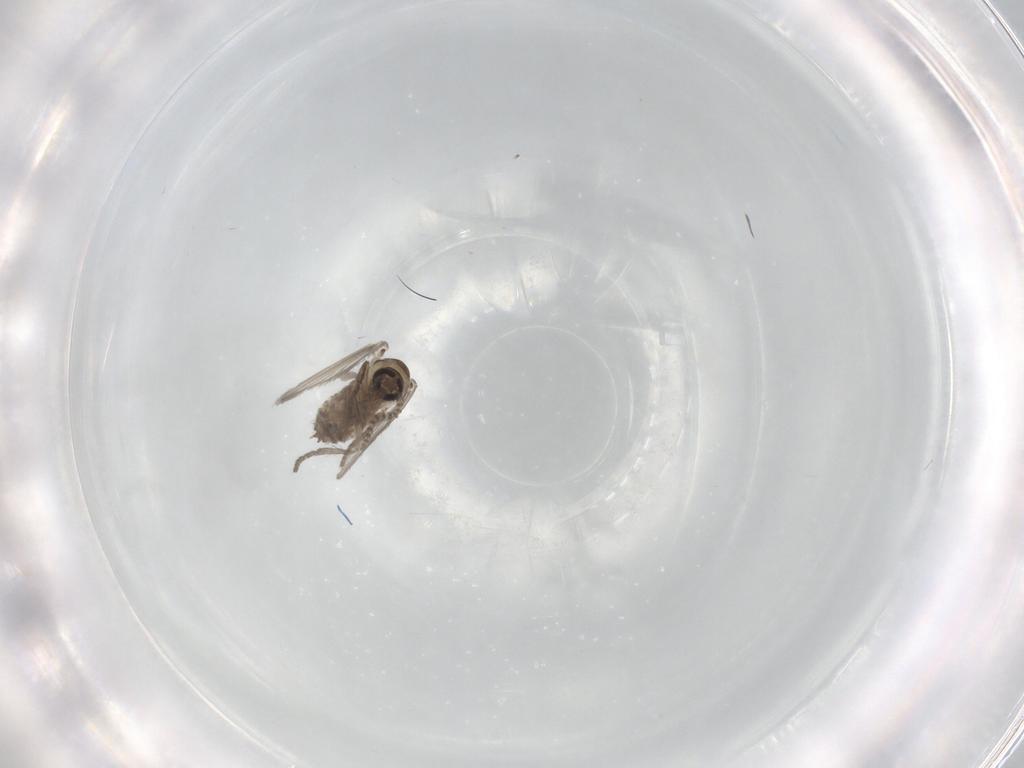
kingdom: Animalia
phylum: Arthropoda
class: Insecta
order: Diptera
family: Psychodidae
